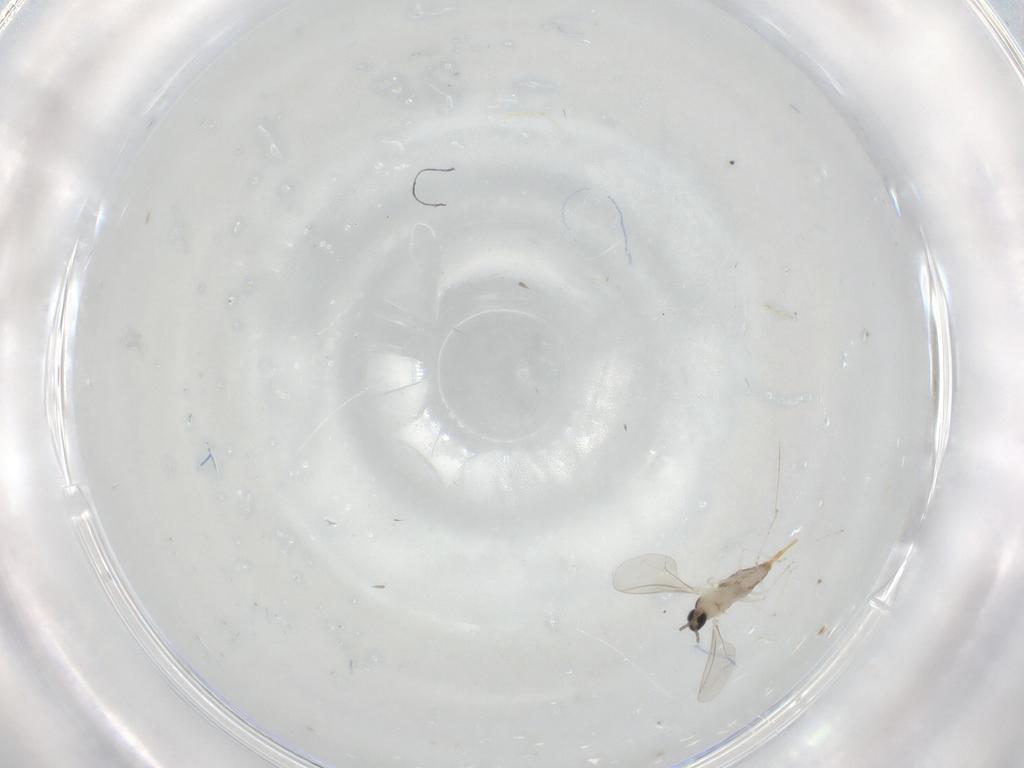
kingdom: Animalia
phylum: Arthropoda
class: Insecta
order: Diptera
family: Cecidomyiidae
